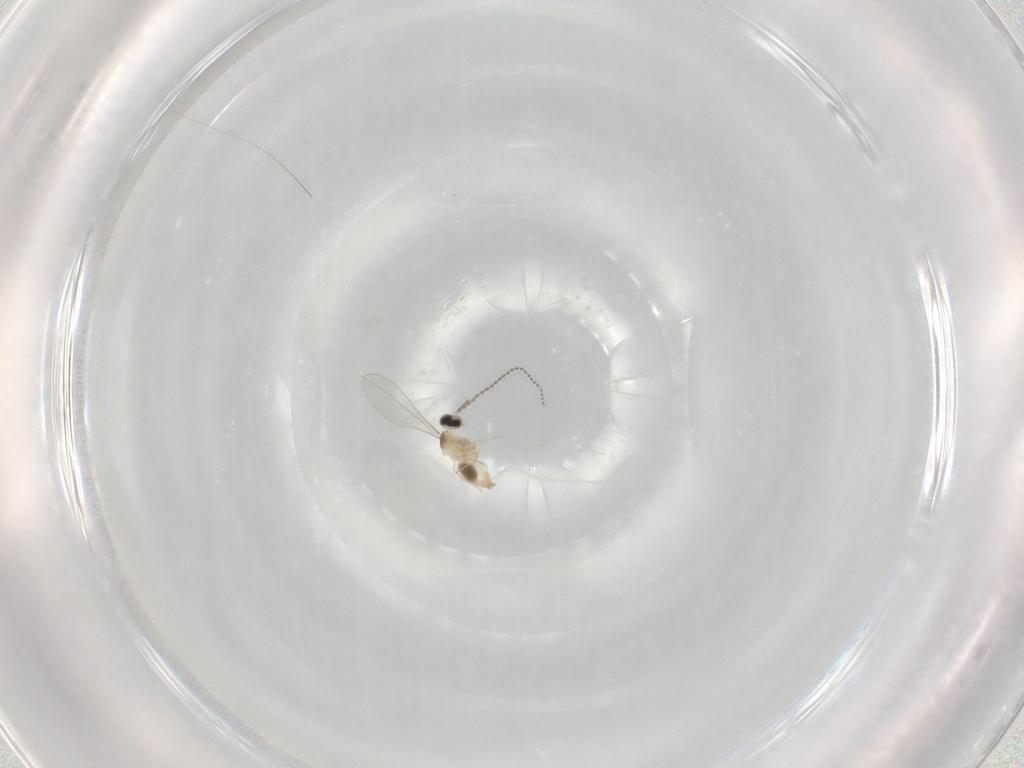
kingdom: Animalia
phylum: Arthropoda
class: Insecta
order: Diptera
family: Cecidomyiidae
